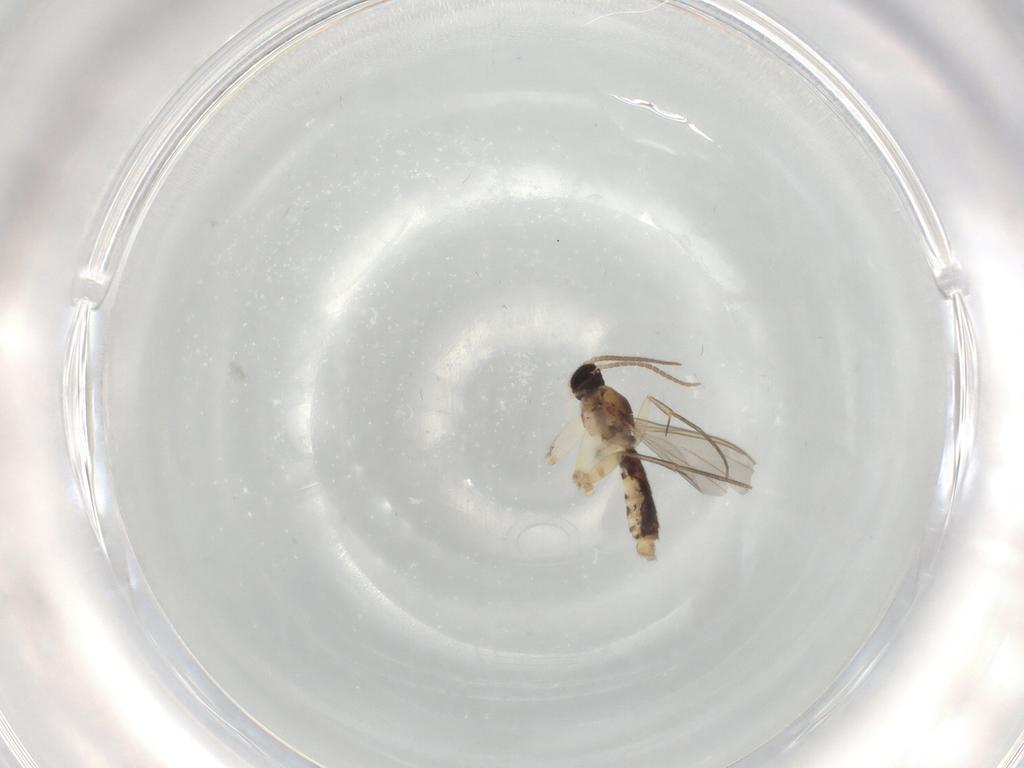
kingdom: Animalia
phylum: Arthropoda
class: Insecta
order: Diptera
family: Mycetophilidae
